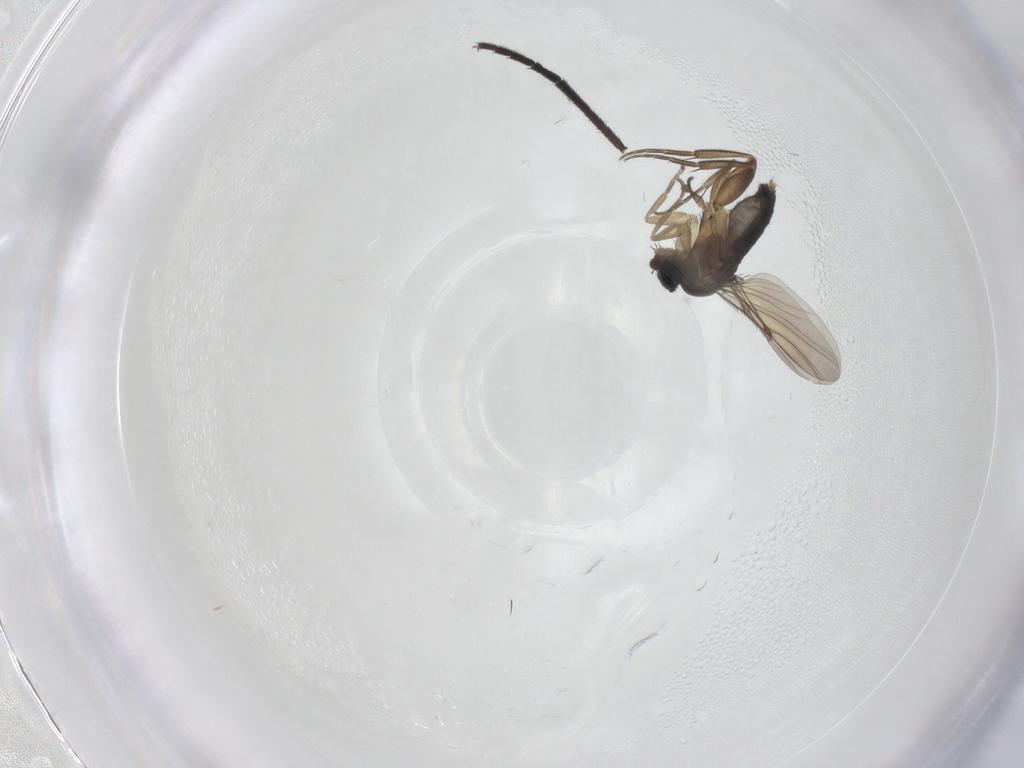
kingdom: Animalia
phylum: Arthropoda
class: Insecta
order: Diptera
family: Phoridae
